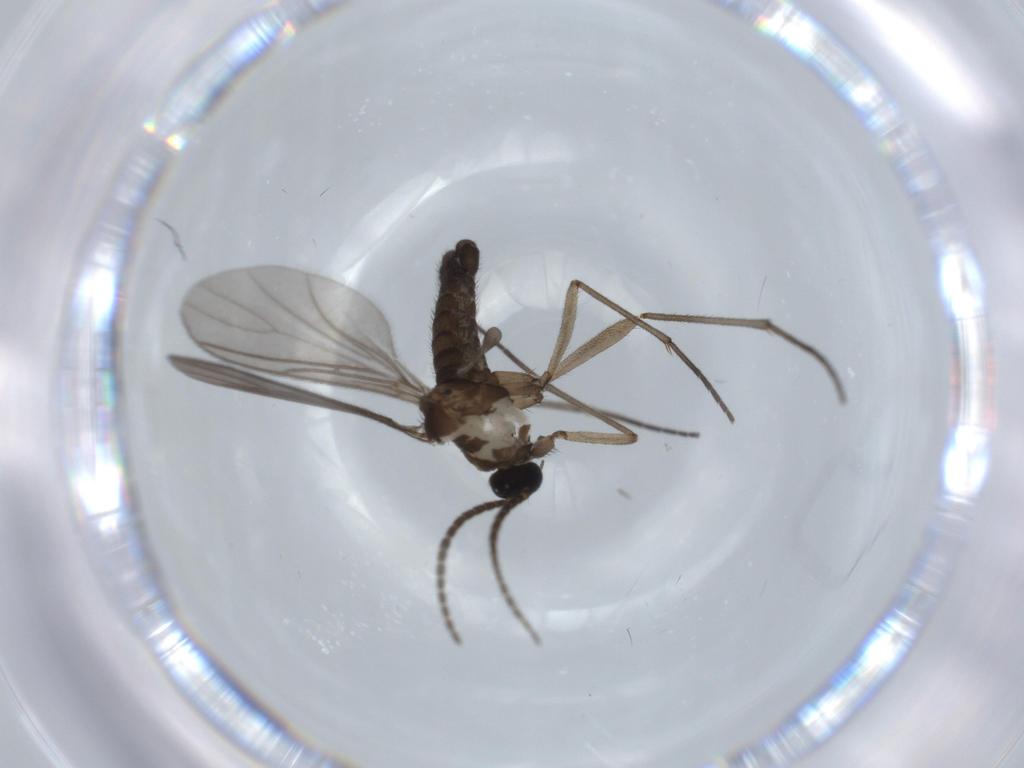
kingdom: Animalia
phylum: Arthropoda
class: Insecta
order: Diptera
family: Sciaridae
